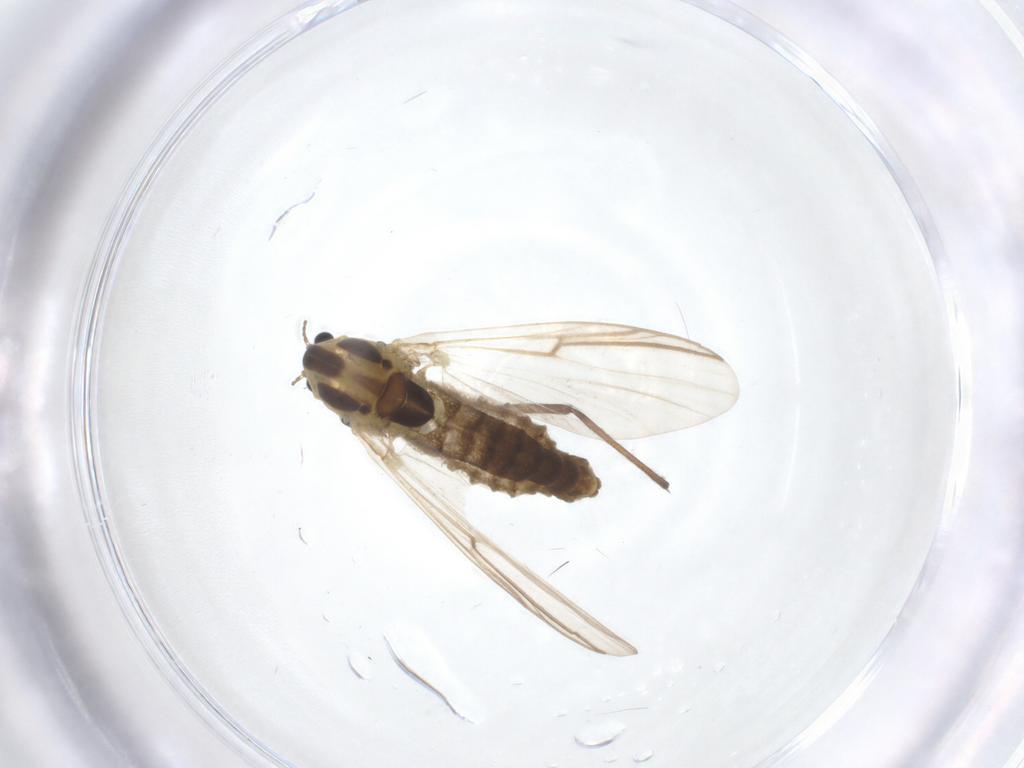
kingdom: Animalia
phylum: Arthropoda
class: Insecta
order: Diptera
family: Chironomidae
